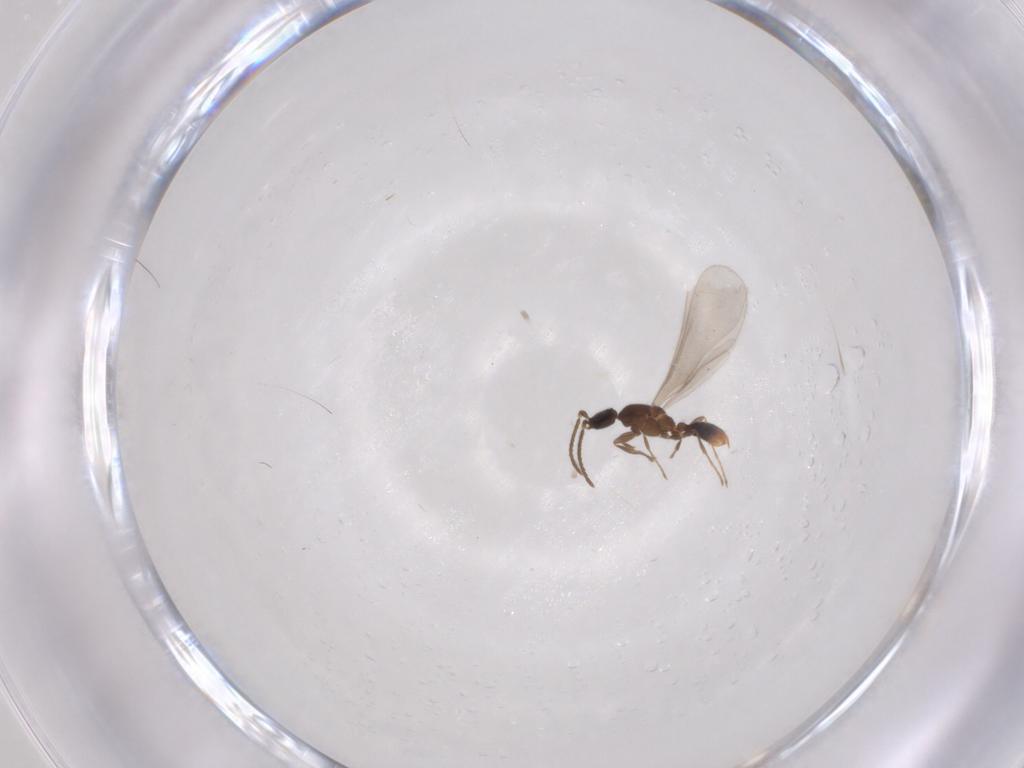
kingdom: Animalia
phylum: Arthropoda
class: Insecta
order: Hymenoptera
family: Formicidae
